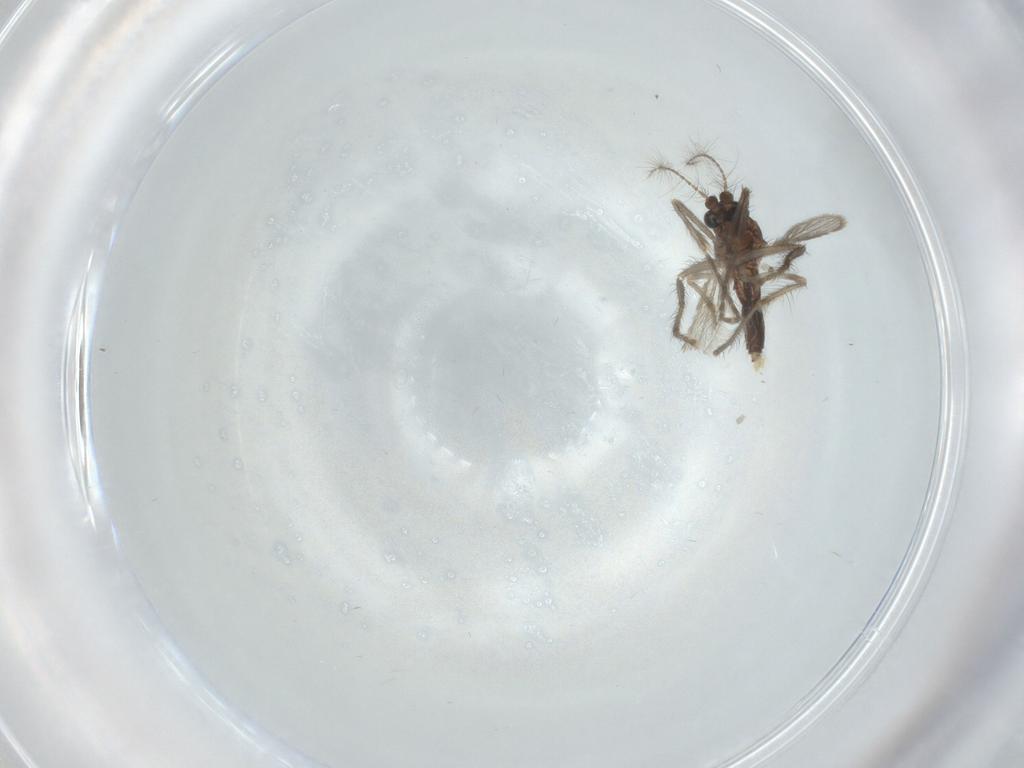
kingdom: Animalia
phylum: Arthropoda
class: Insecta
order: Diptera
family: Corethrellidae
